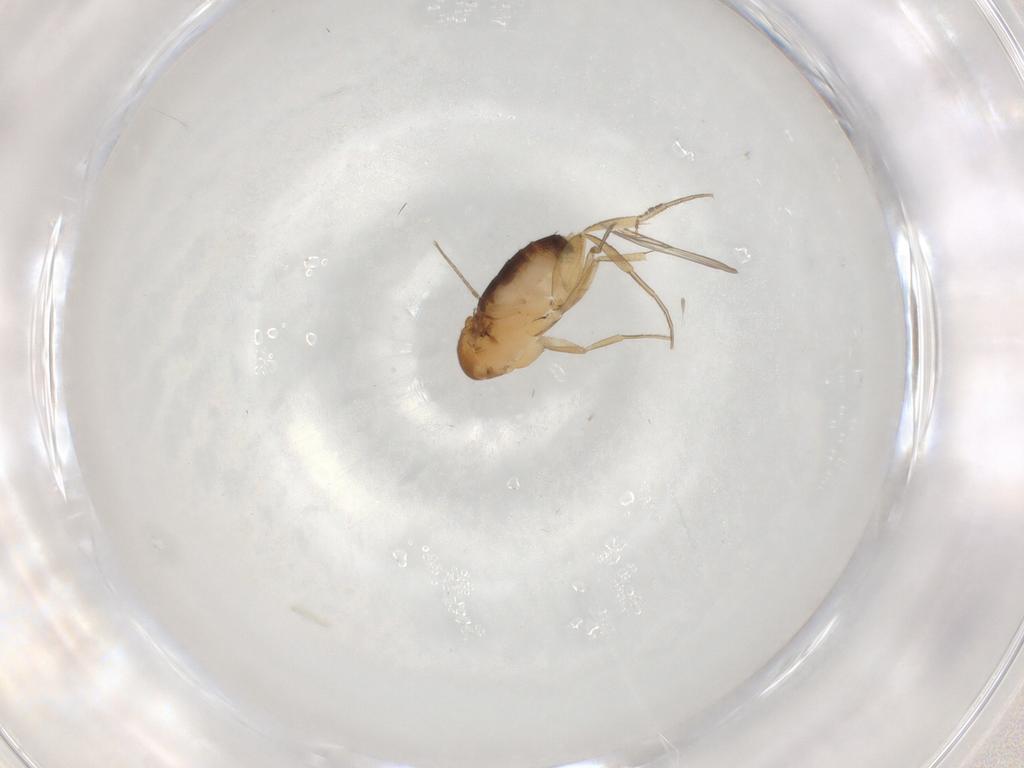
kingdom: Animalia
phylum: Arthropoda
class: Insecta
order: Diptera
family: Phoridae
